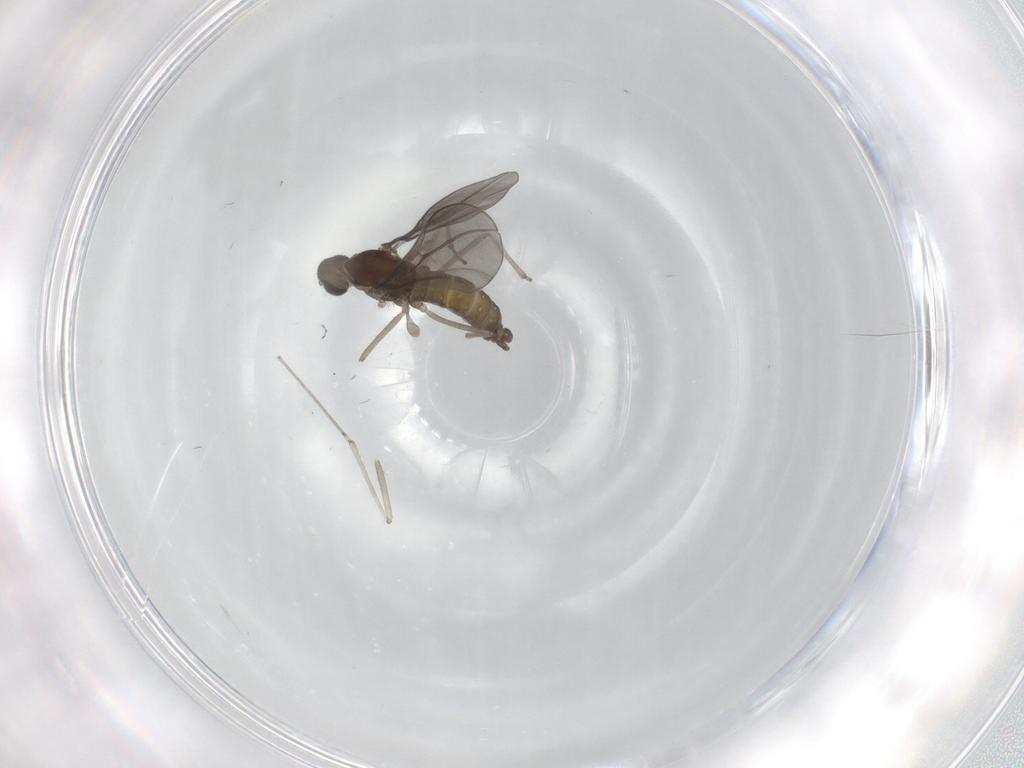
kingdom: Animalia
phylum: Arthropoda
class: Insecta
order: Diptera
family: Cecidomyiidae
